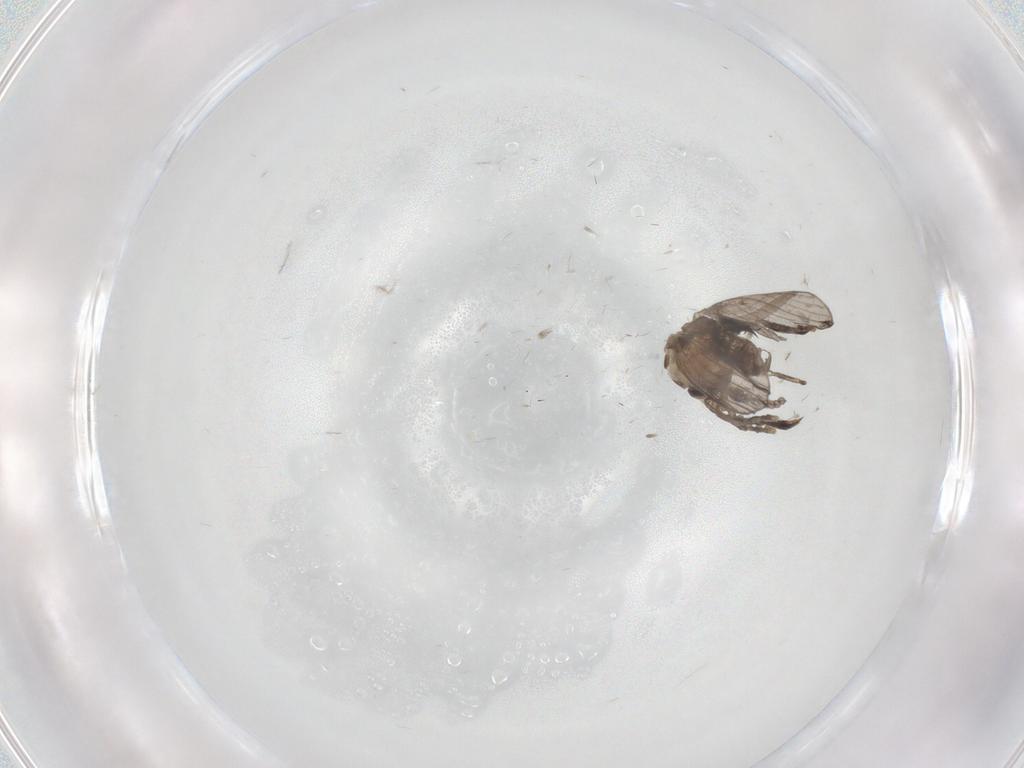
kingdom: Animalia
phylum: Arthropoda
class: Insecta
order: Diptera
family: Psychodidae
